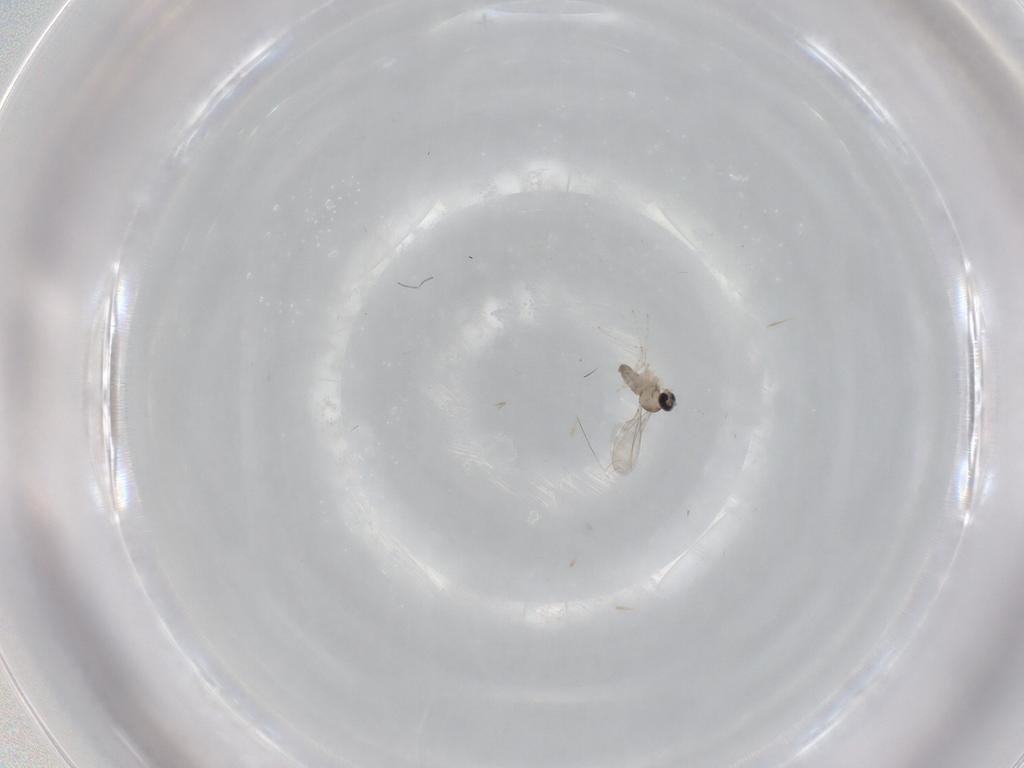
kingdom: Animalia
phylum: Arthropoda
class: Insecta
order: Diptera
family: Cecidomyiidae
